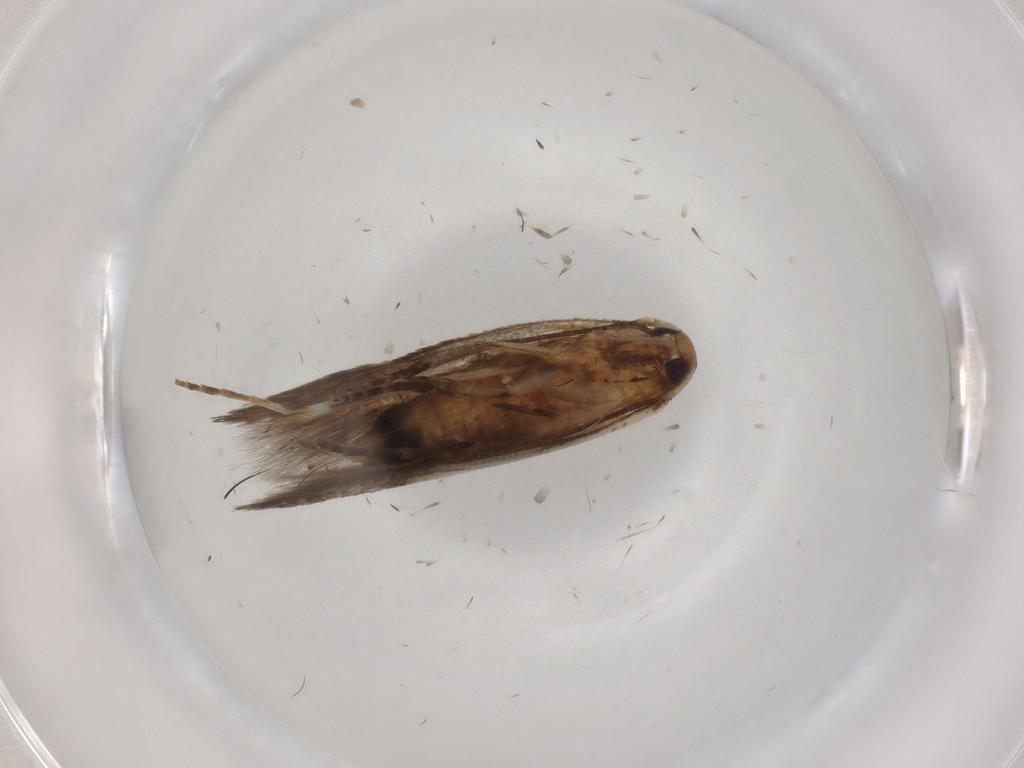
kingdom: Animalia
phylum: Arthropoda
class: Insecta
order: Lepidoptera
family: Cosmopterigidae
